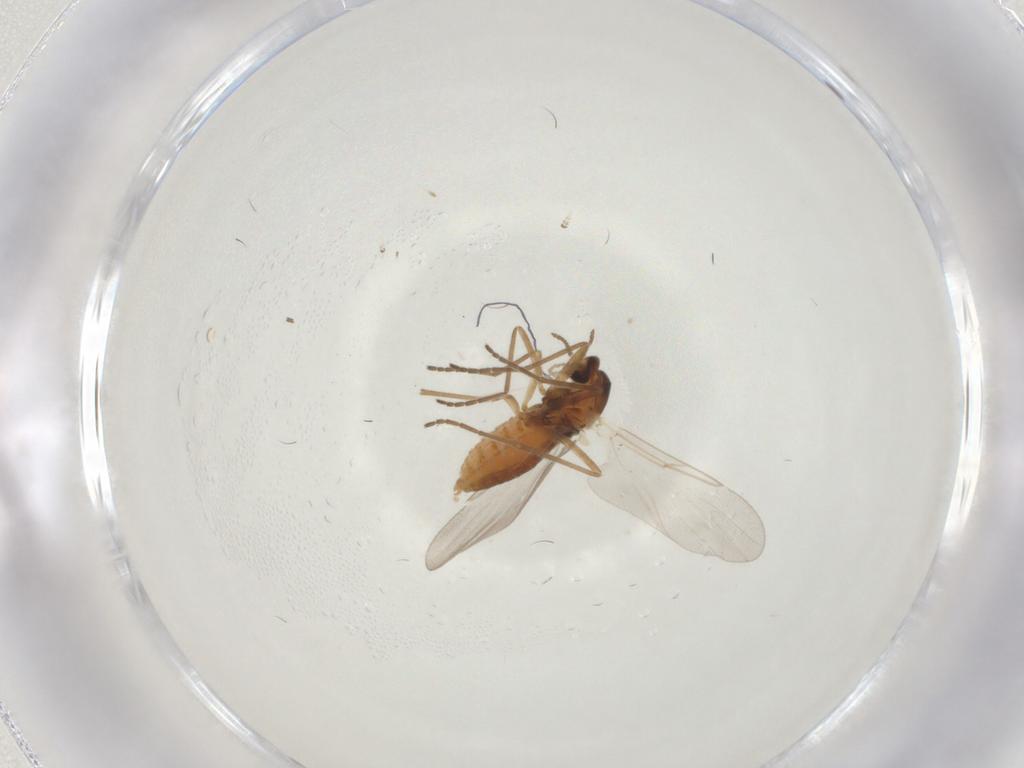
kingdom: Animalia
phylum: Arthropoda
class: Insecta
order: Diptera
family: Cecidomyiidae
